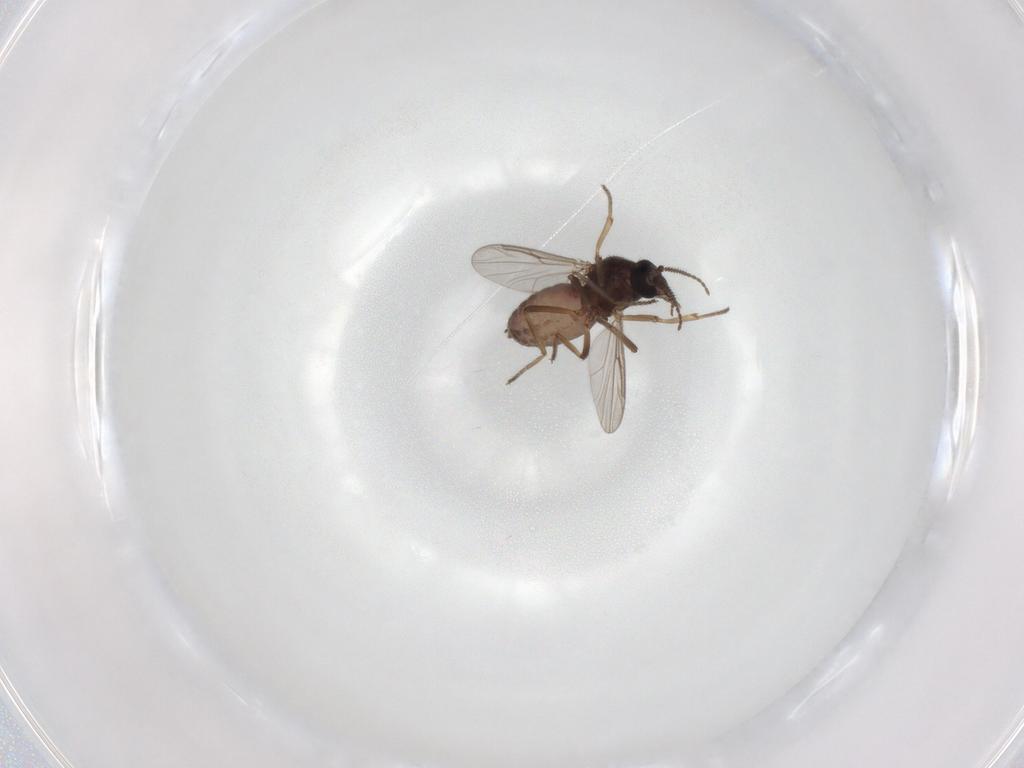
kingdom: Animalia
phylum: Arthropoda
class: Insecta
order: Diptera
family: Ceratopogonidae
